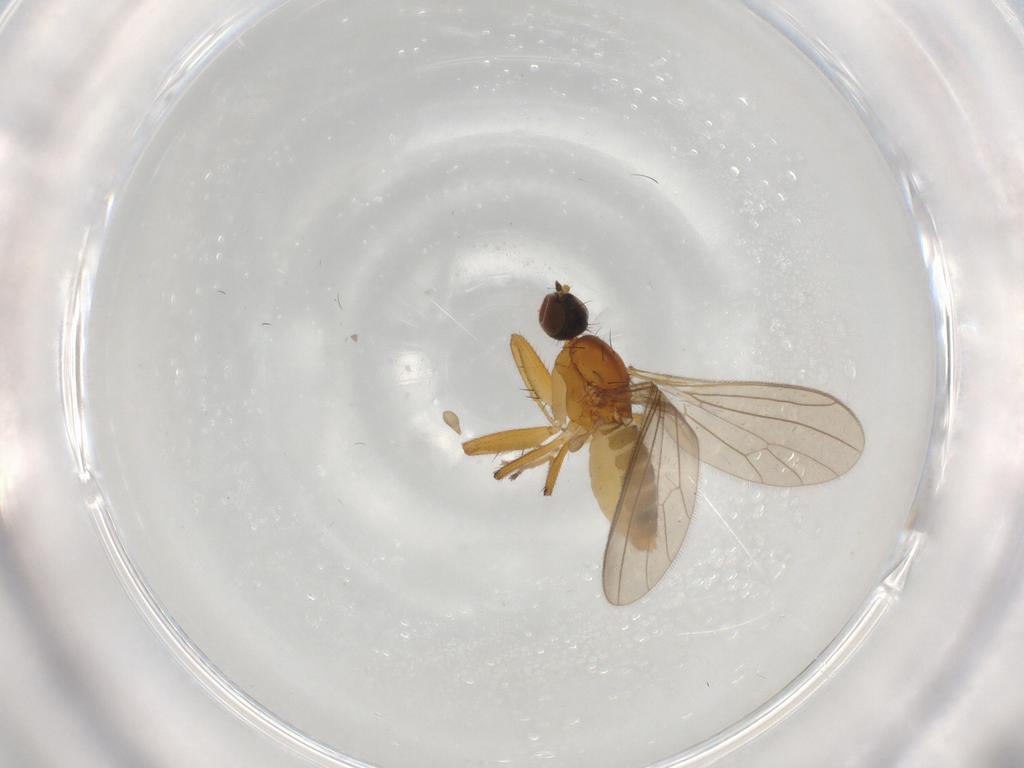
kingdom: Animalia
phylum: Arthropoda
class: Insecta
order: Diptera
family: Empididae
